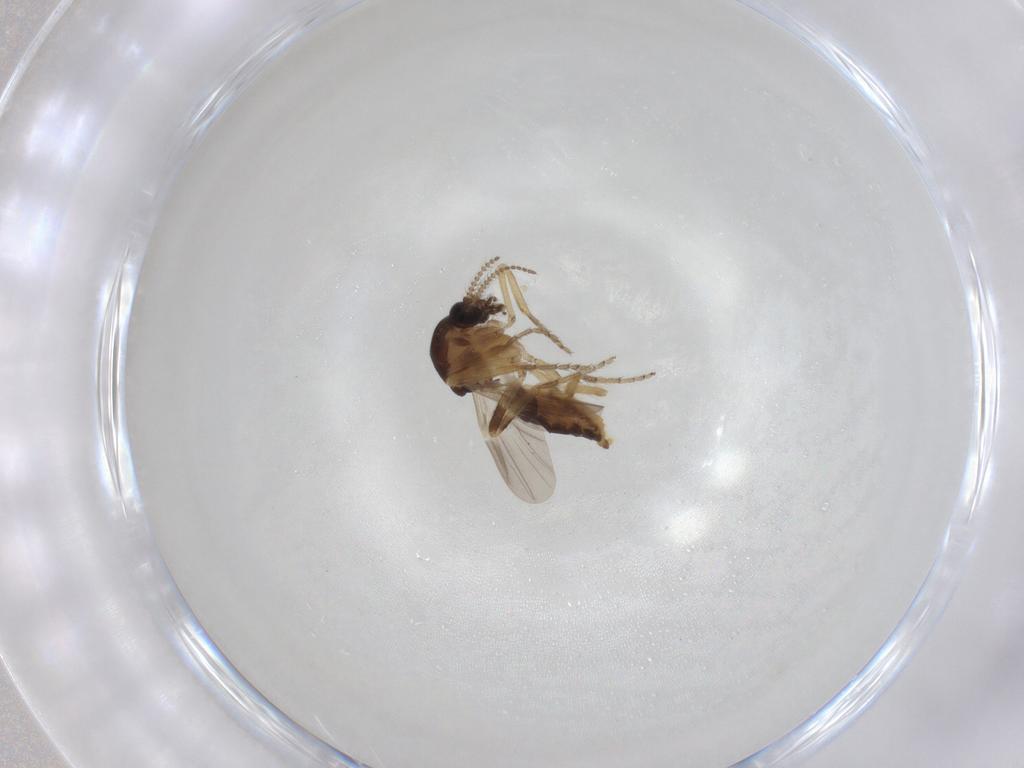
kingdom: Animalia
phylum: Arthropoda
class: Insecta
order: Diptera
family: Ceratopogonidae
